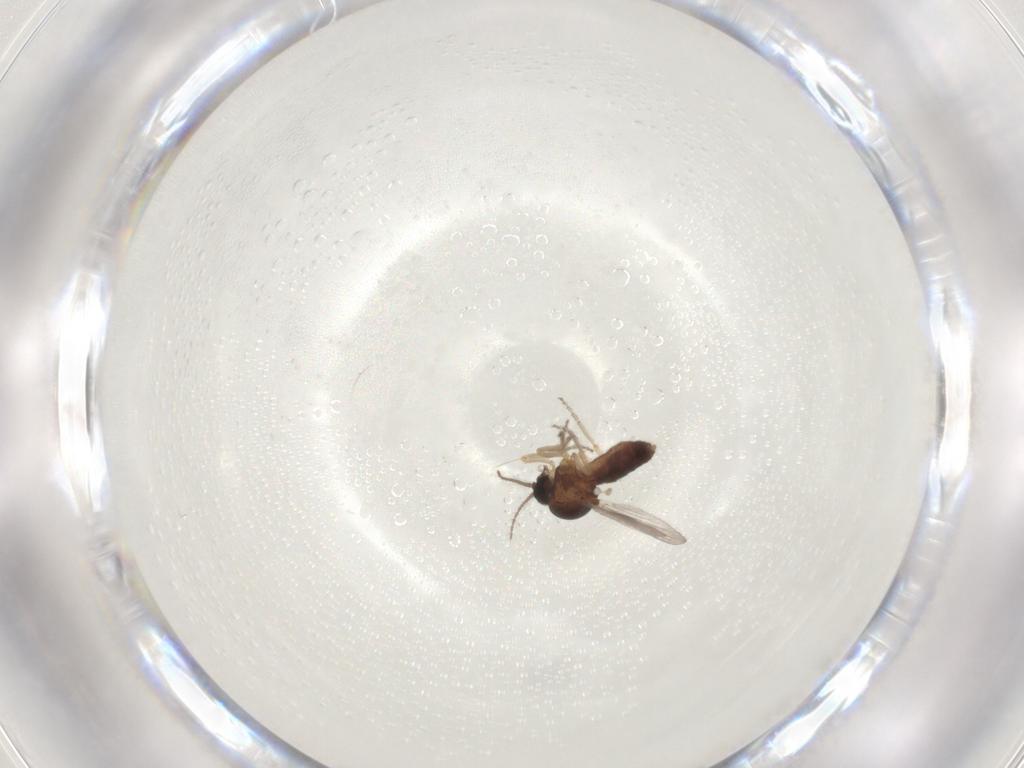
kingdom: Animalia
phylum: Arthropoda
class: Insecta
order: Diptera
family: Ceratopogonidae
